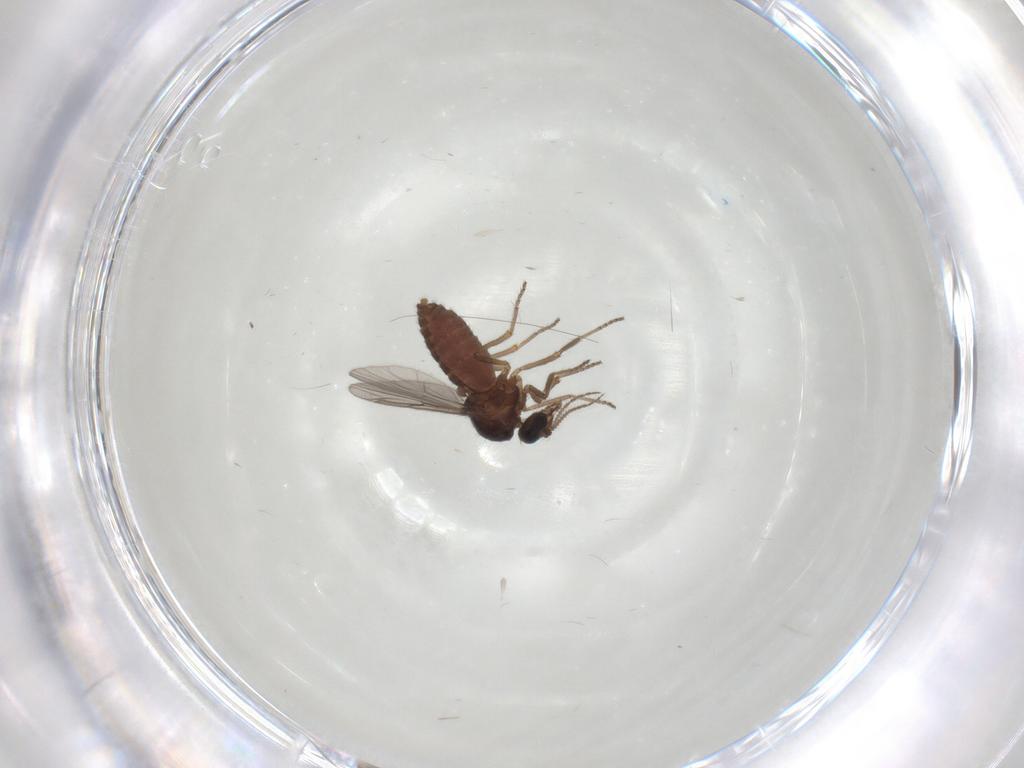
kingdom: Animalia
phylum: Arthropoda
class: Insecta
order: Diptera
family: Ceratopogonidae
